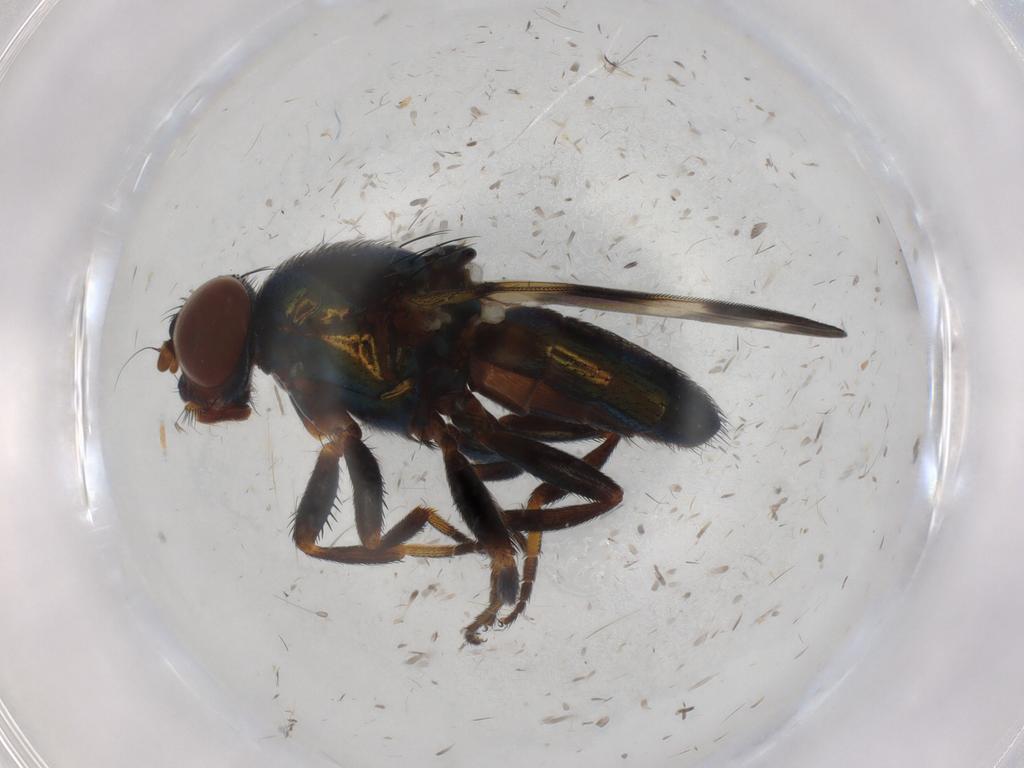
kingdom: Animalia
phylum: Arthropoda
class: Insecta
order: Diptera
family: Ulidiidae
